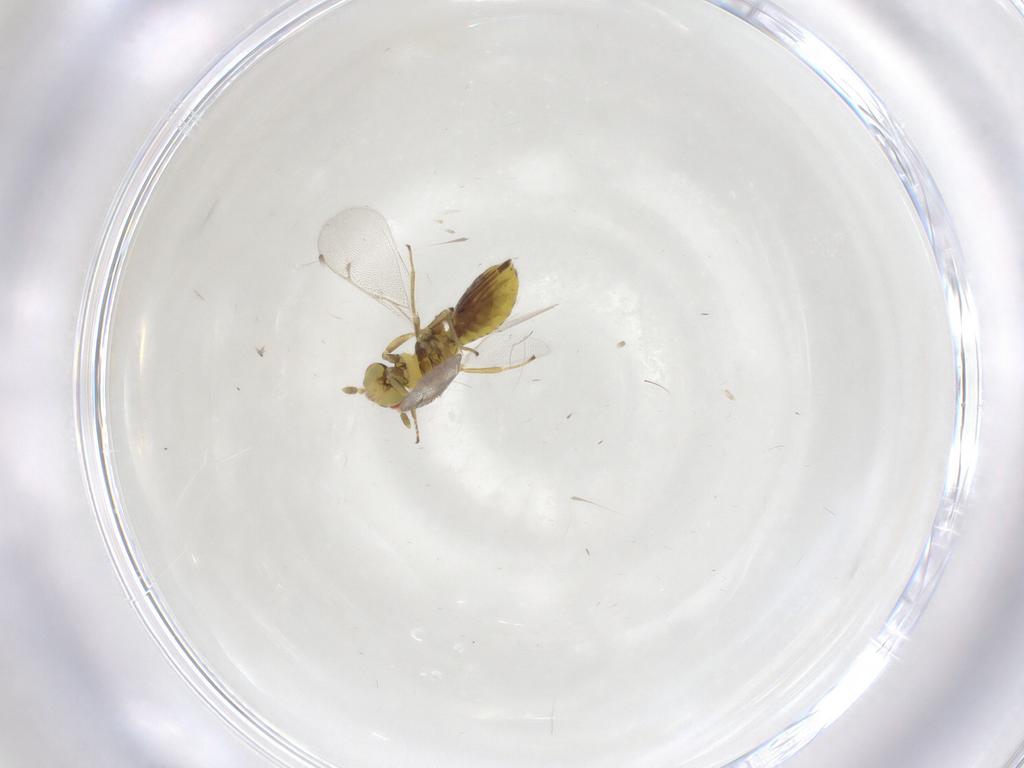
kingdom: Animalia
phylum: Arthropoda
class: Insecta
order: Hymenoptera
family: Eulophidae
